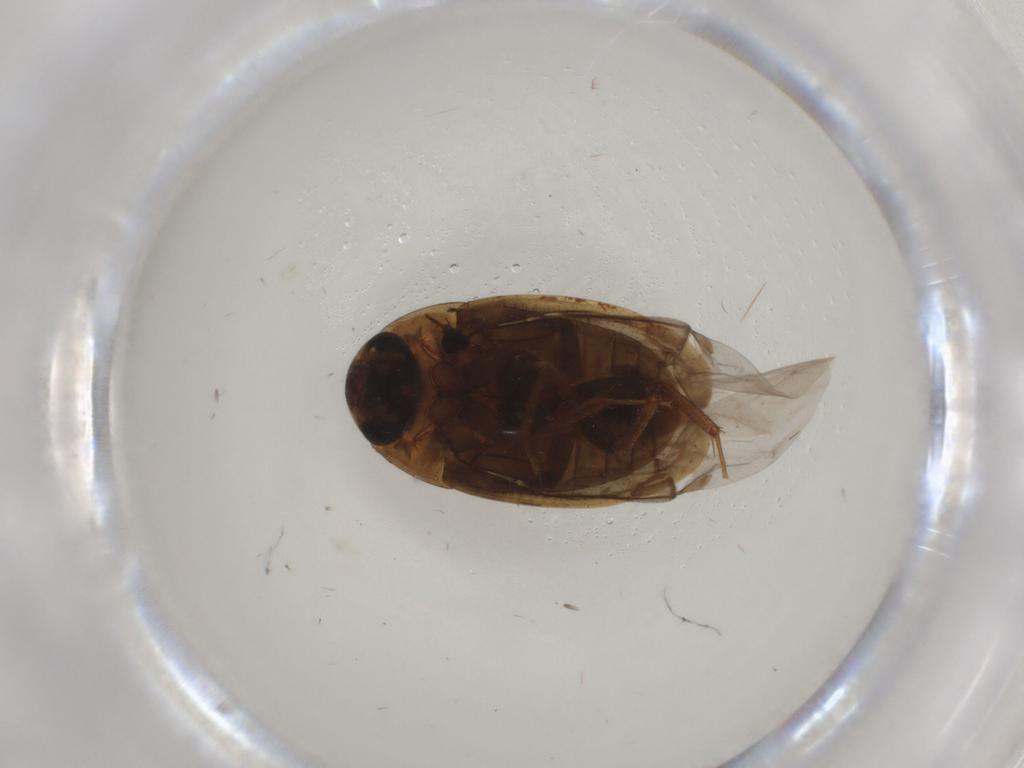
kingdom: Animalia
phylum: Arthropoda
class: Insecta
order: Coleoptera
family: Hydrophilidae
